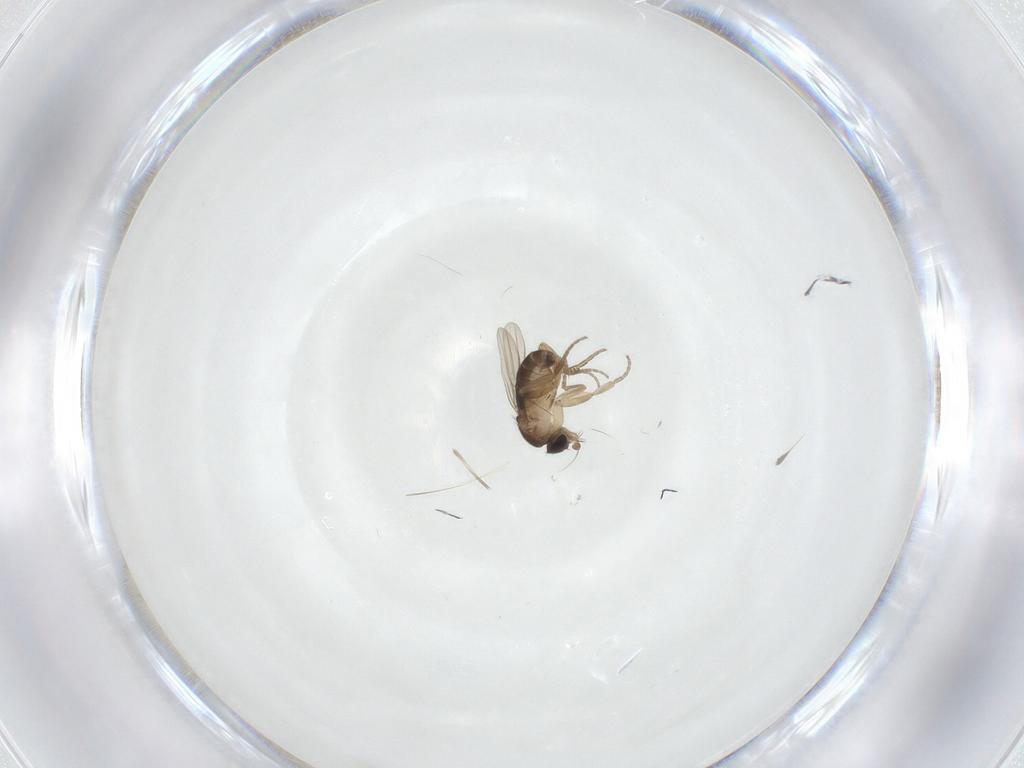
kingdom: Animalia
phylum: Arthropoda
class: Insecta
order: Diptera
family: Phoridae
